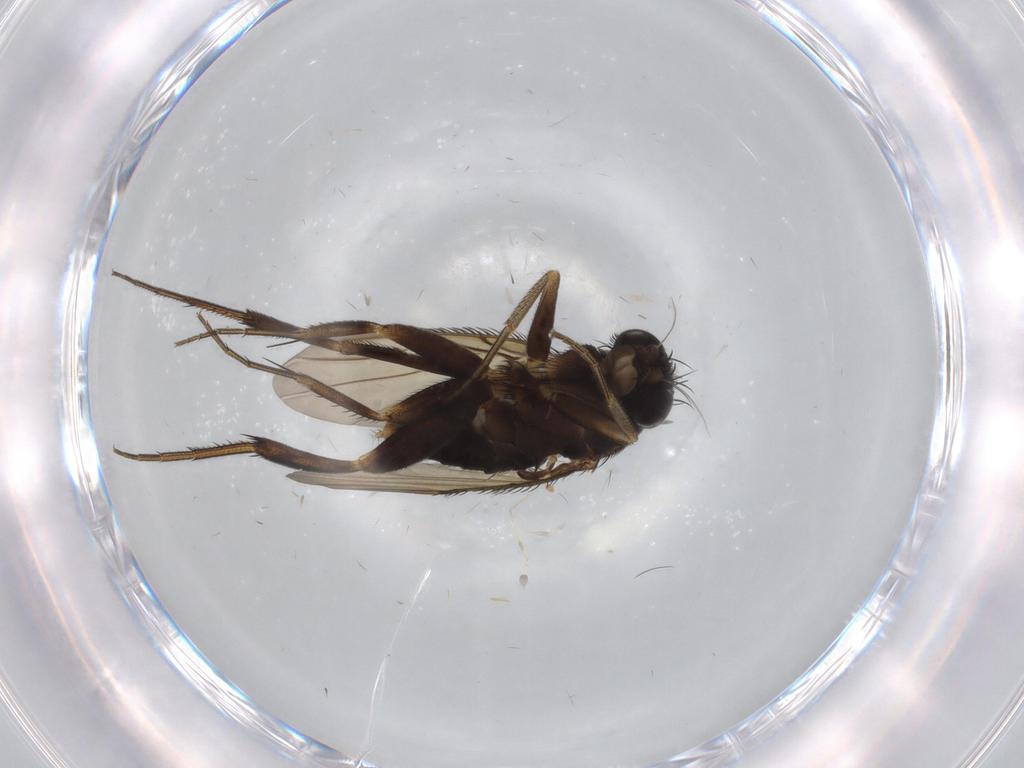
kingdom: Animalia
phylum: Arthropoda
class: Insecta
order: Diptera
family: Phoridae
